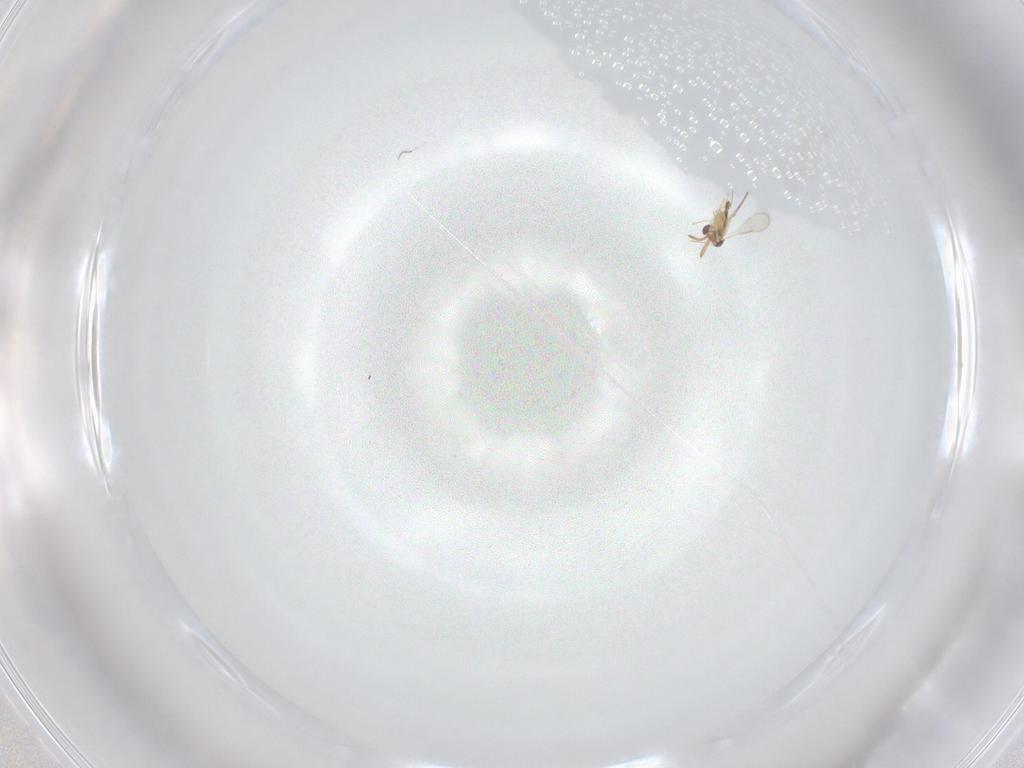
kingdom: Animalia
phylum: Arthropoda
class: Insecta
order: Hymenoptera
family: Aphelinidae
